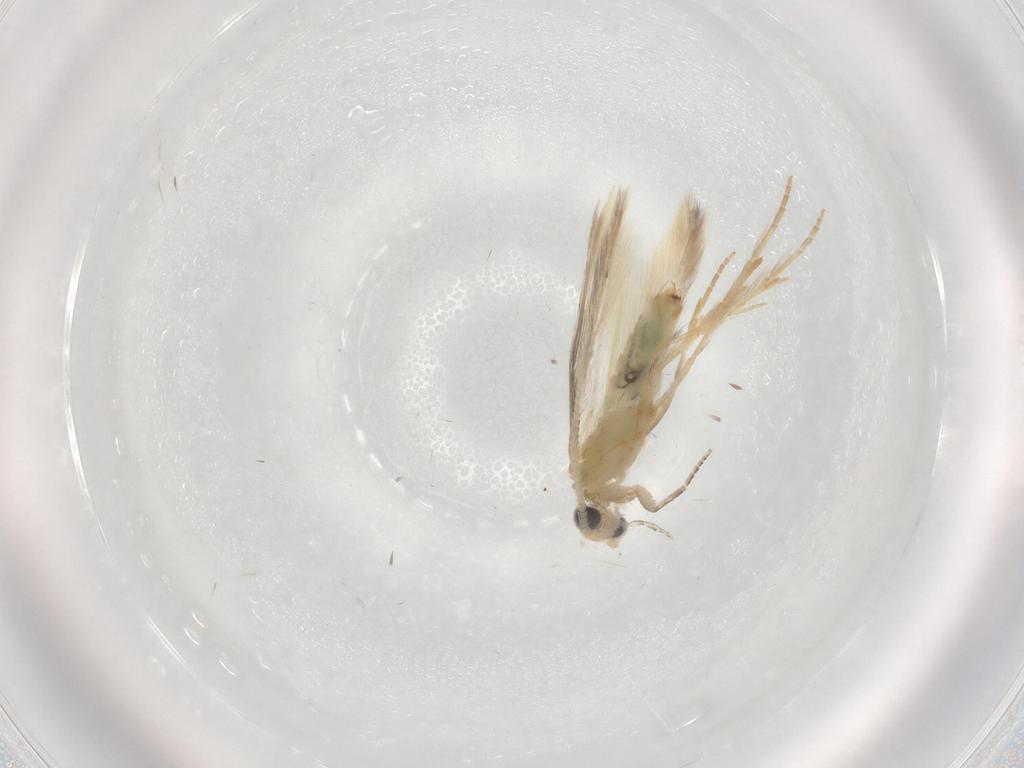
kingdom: Animalia
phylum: Arthropoda
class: Insecta
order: Trichoptera
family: Hydroptilidae
